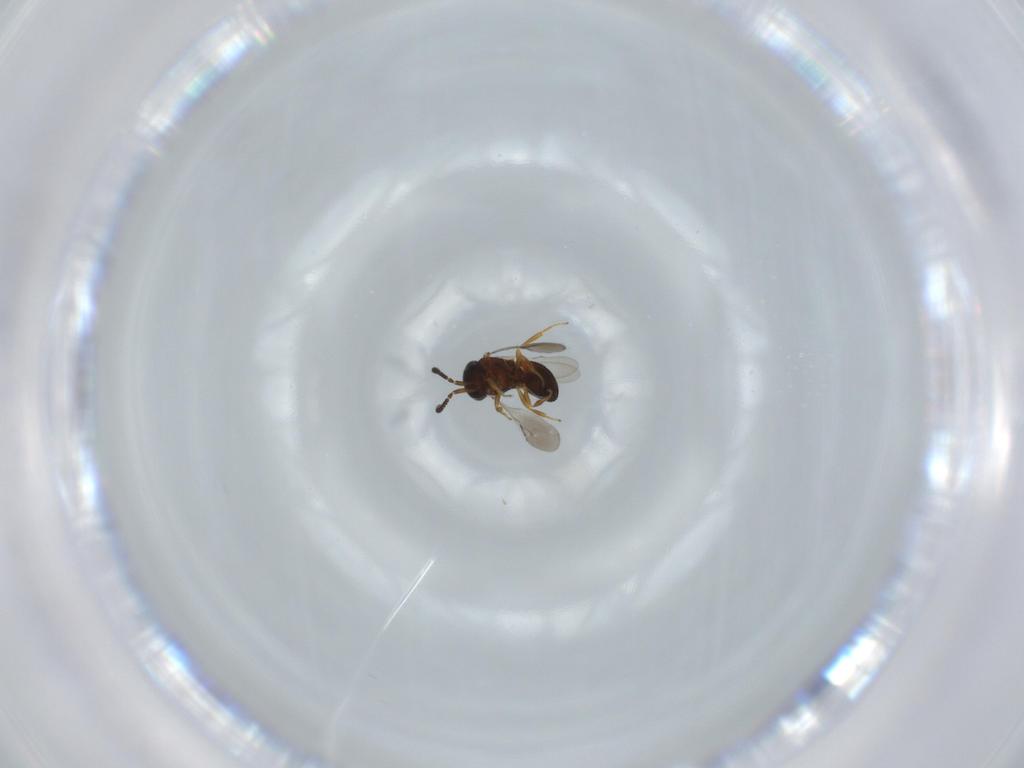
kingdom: Animalia
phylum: Arthropoda
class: Insecta
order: Hymenoptera
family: Scelionidae
